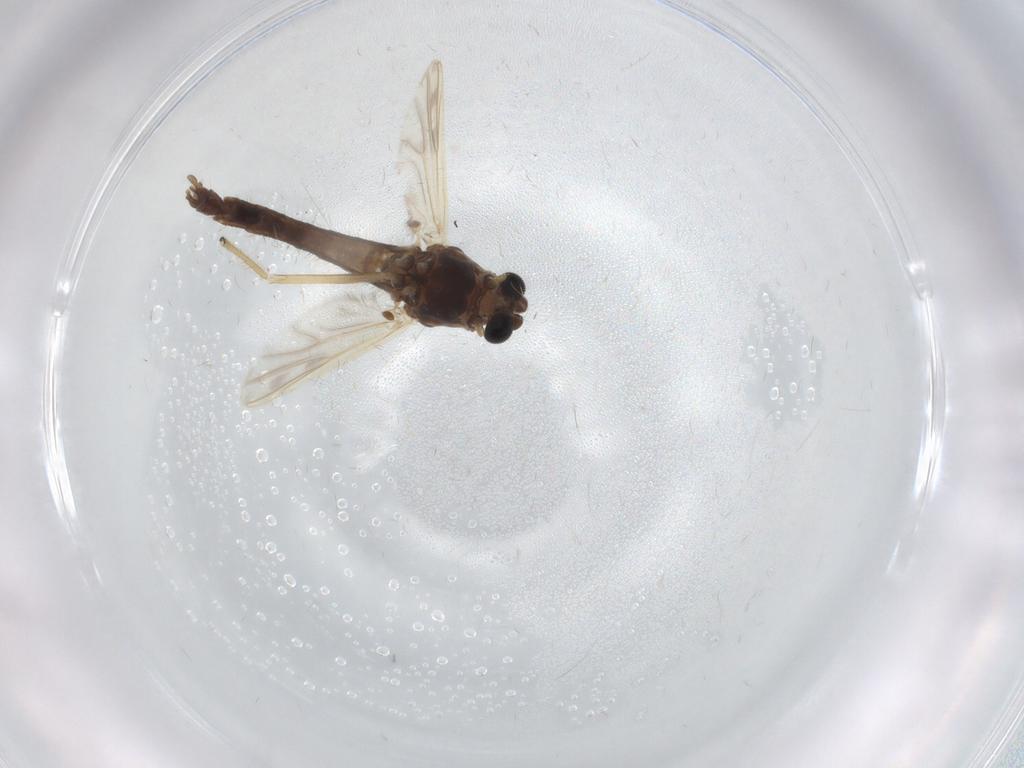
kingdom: Animalia
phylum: Arthropoda
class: Insecta
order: Diptera
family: Chironomidae
